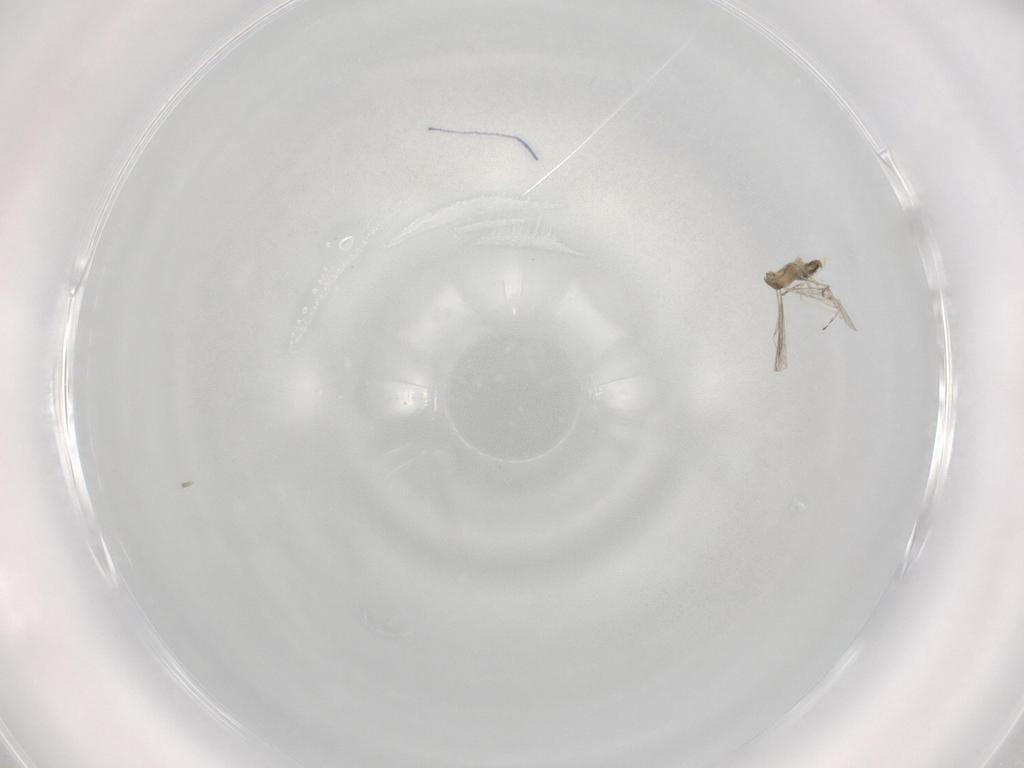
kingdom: Animalia
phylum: Arthropoda
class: Insecta
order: Diptera
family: Cecidomyiidae
